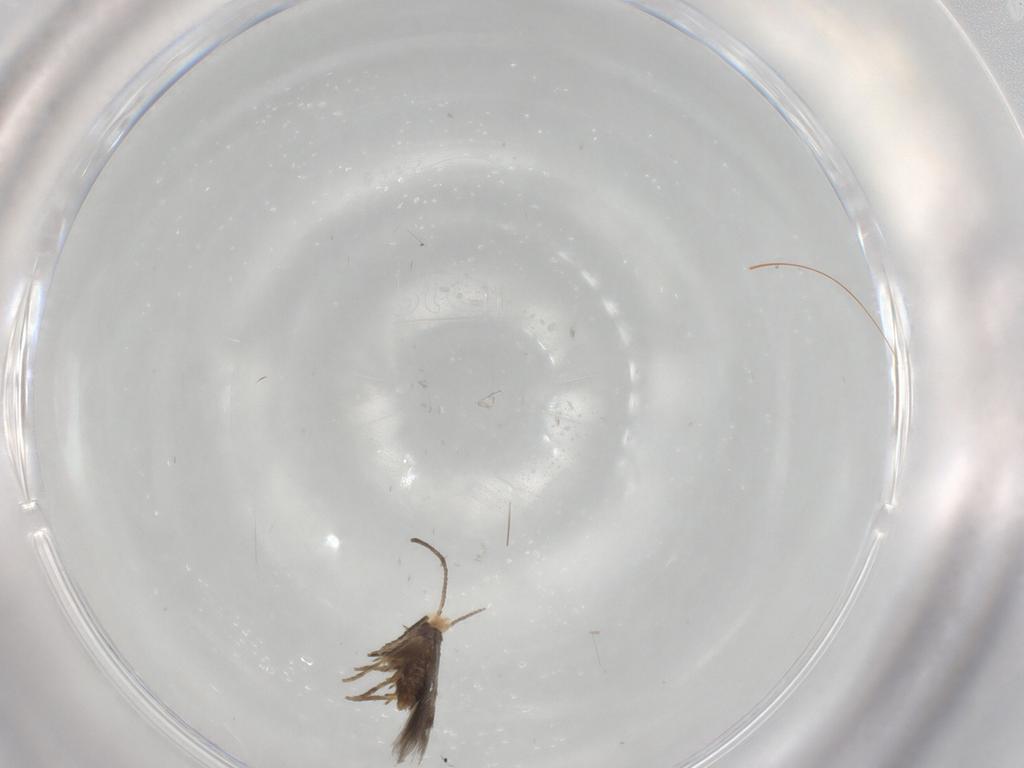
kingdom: Animalia
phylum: Arthropoda
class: Insecta
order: Lepidoptera
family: Nepticulidae
